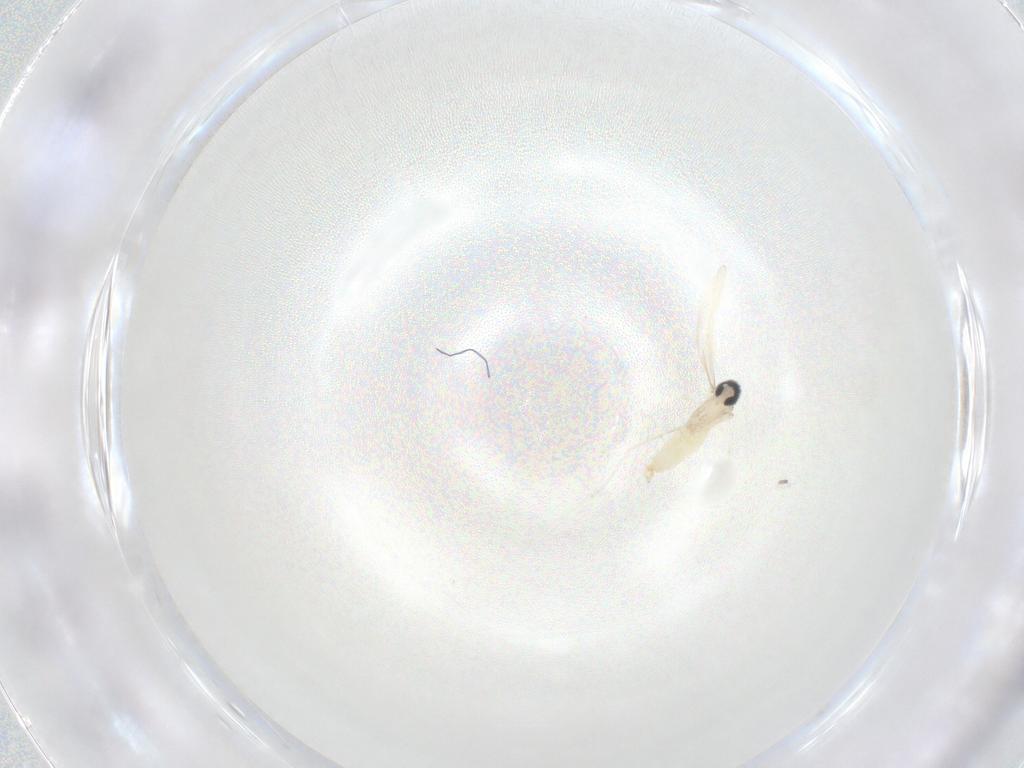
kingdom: Animalia
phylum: Arthropoda
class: Insecta
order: Diptera
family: Cecidomyiidae
